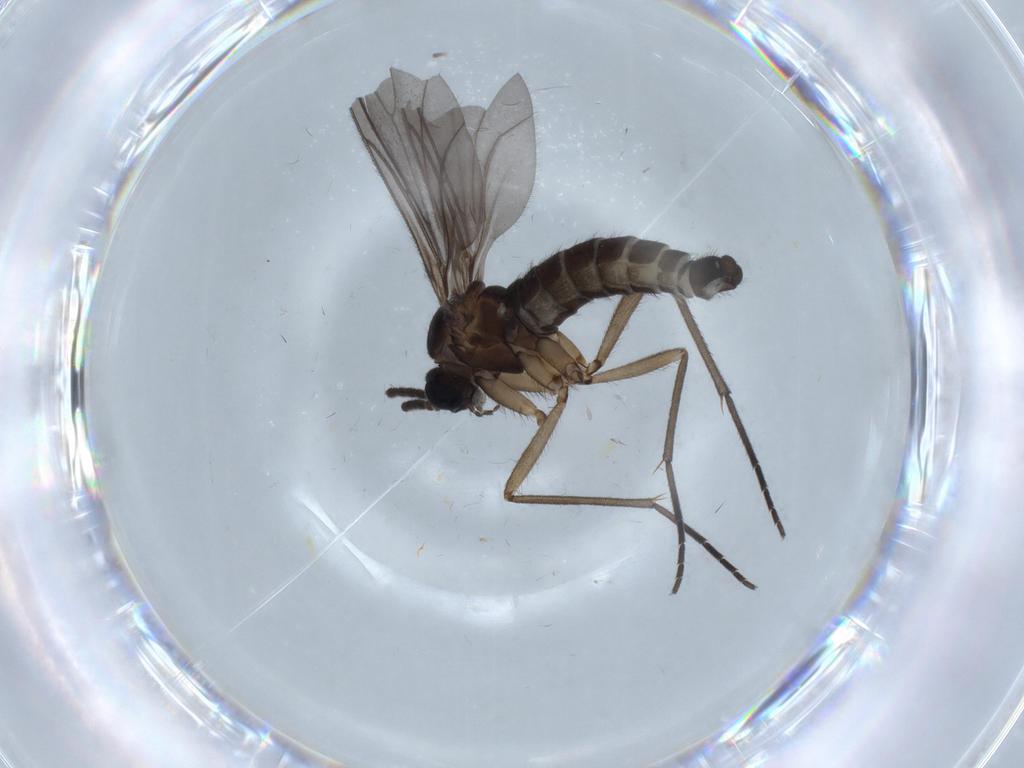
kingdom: Animalia
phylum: Arthropoda
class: Insecta
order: Diptera
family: Sciaridae
